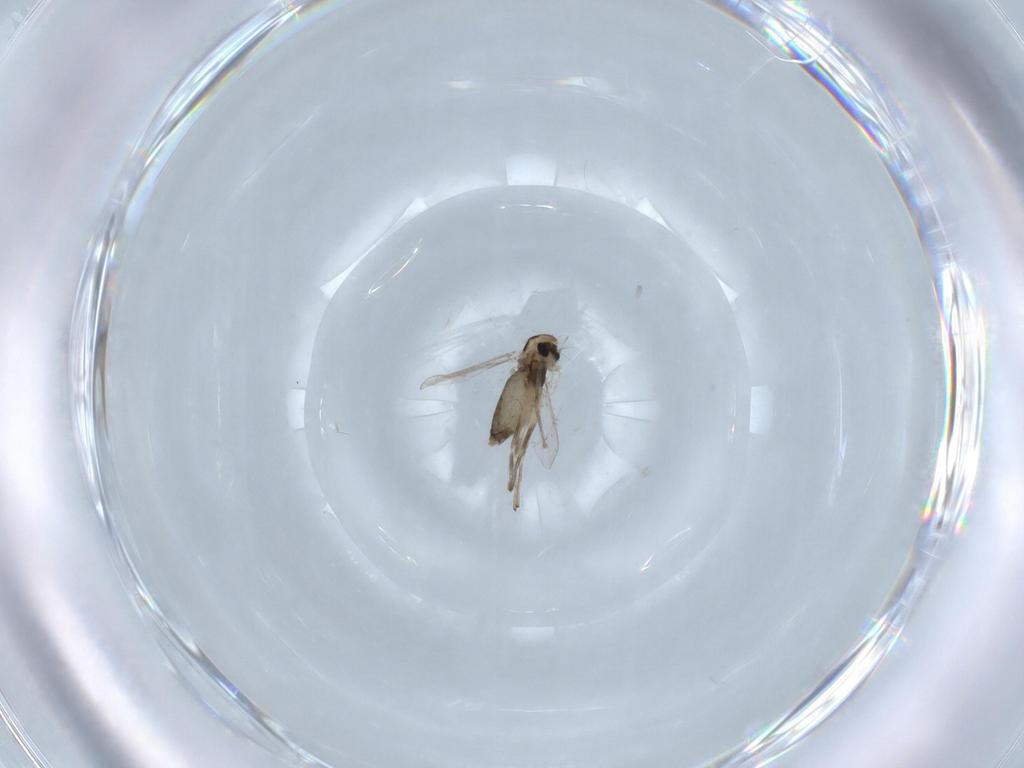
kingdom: Animalia
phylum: Arthropoda
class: Insecta
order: Diptera
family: Chironomidae
